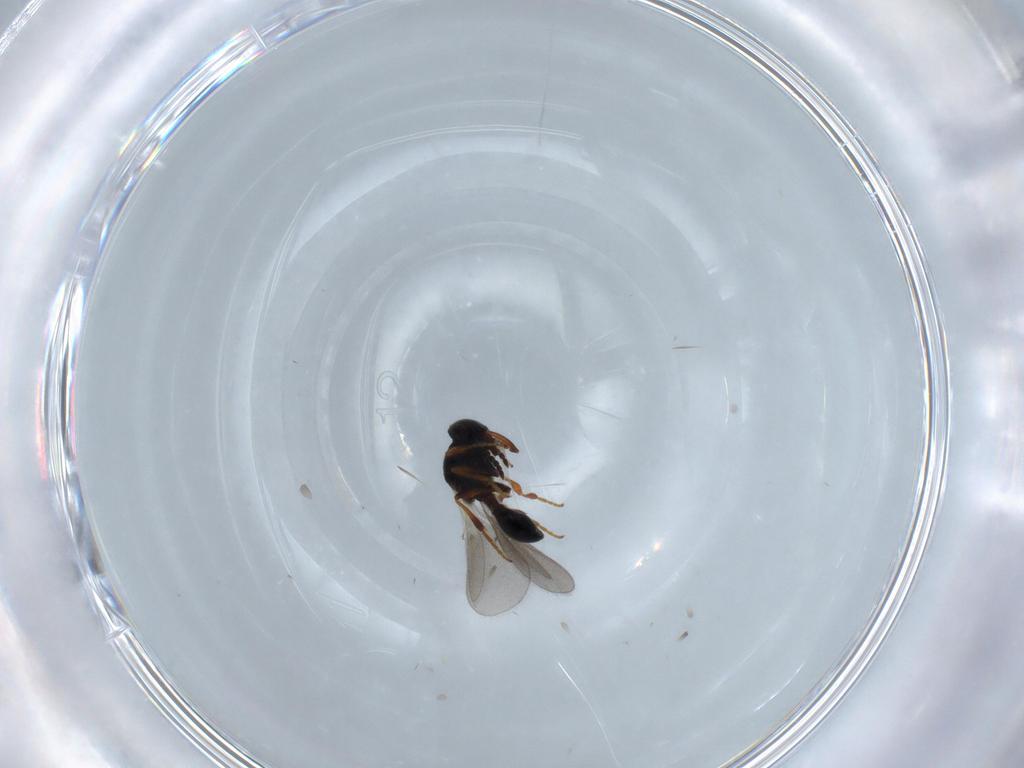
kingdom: Animalia
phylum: Arthropoda
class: Insecta
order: Hymenoptera
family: Platygastridae
